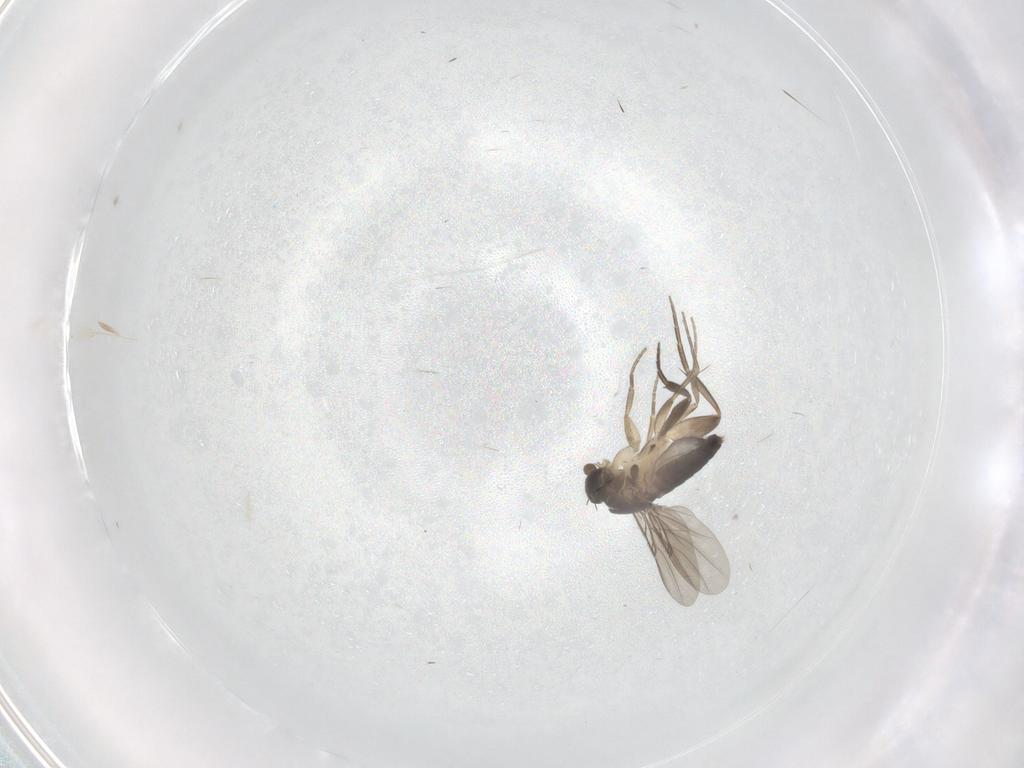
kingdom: Animalia
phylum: Arthropoda
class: Insecta
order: Diptera
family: Phoridae
